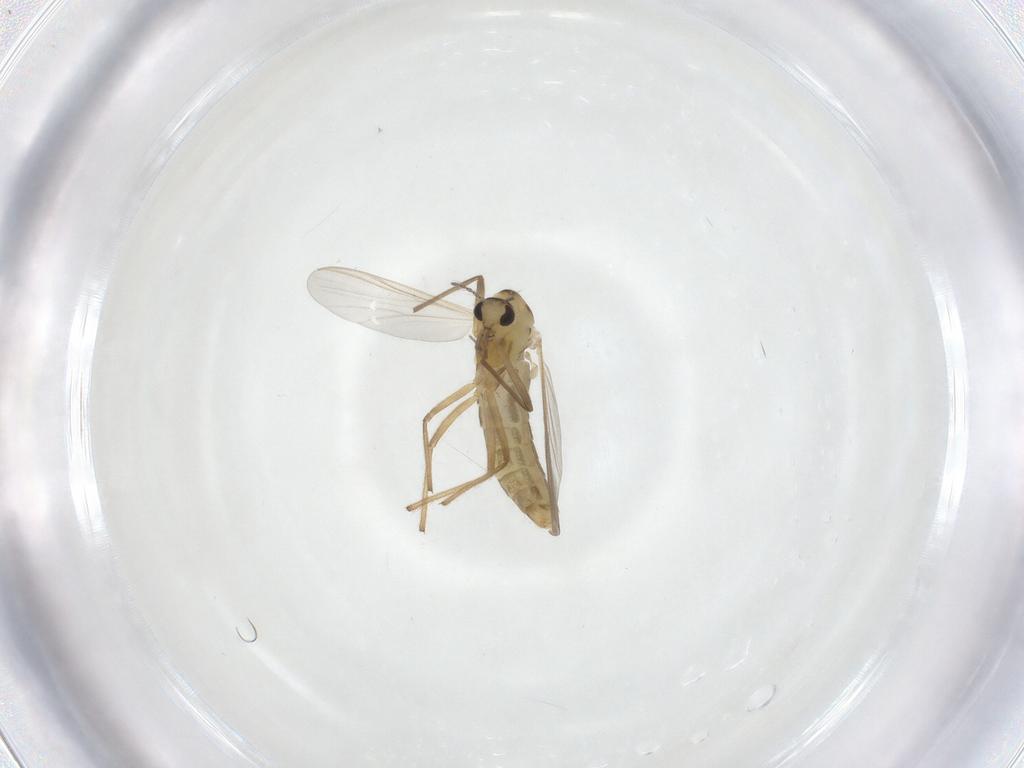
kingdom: Animalia
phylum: Arthropoda
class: Insecta
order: Diptera
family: Chironomidae
